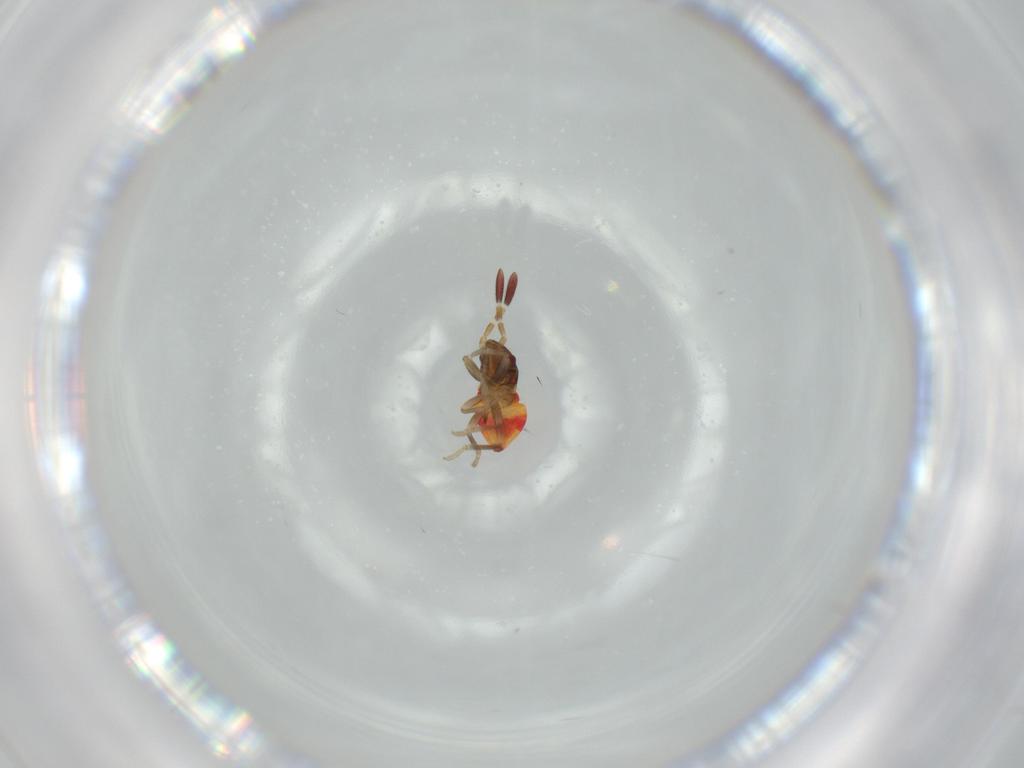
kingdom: Animalia
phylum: Arthropoda
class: Insecta
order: Hemiptera
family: Rhyparochromidae
